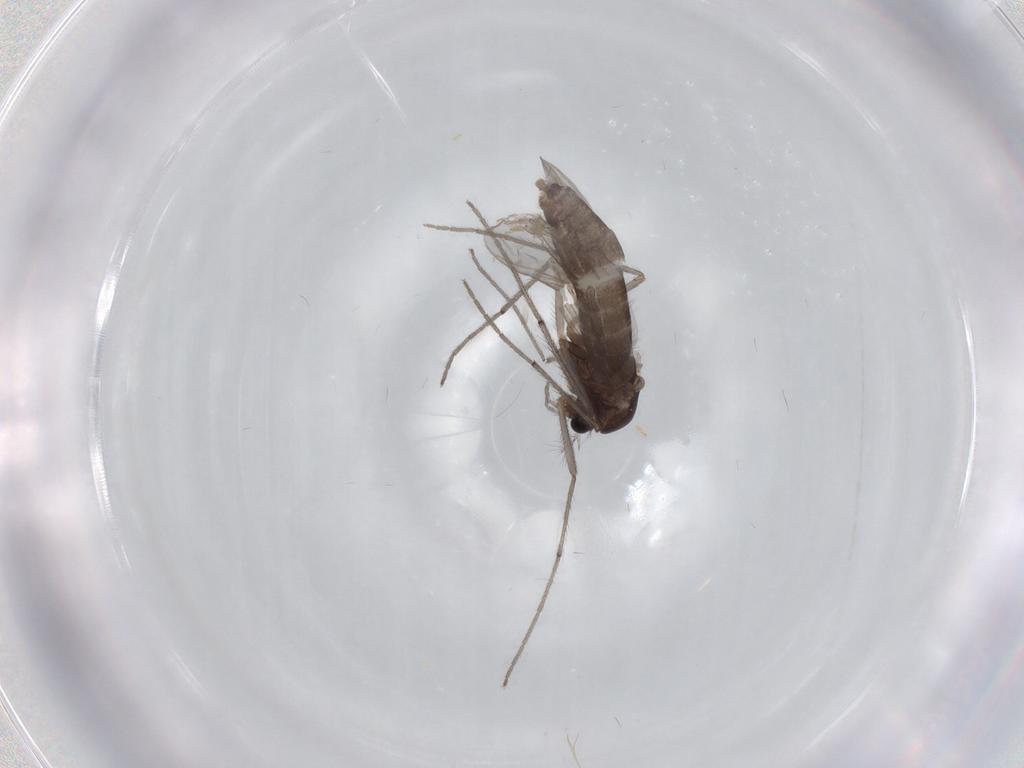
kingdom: Animalia
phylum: Arthropoda
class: Insecta
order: Diptera
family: Chironomidae
